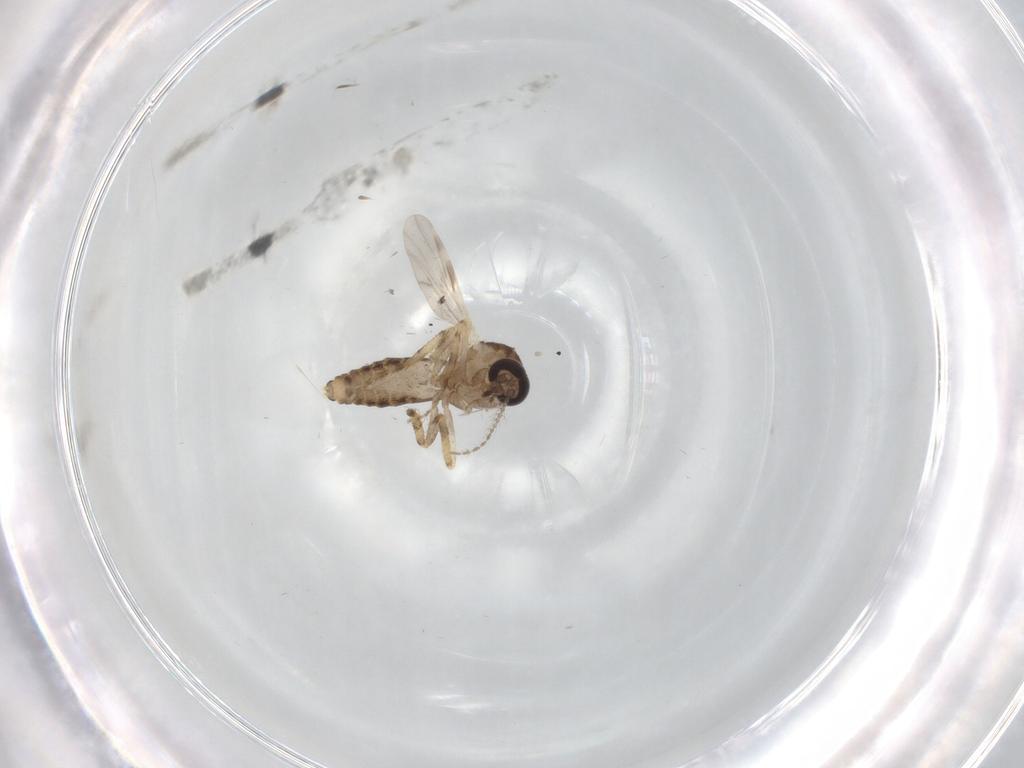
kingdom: Animalia
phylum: Arthropoda
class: Insecta
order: Diptera
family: Ceratopogonidae
